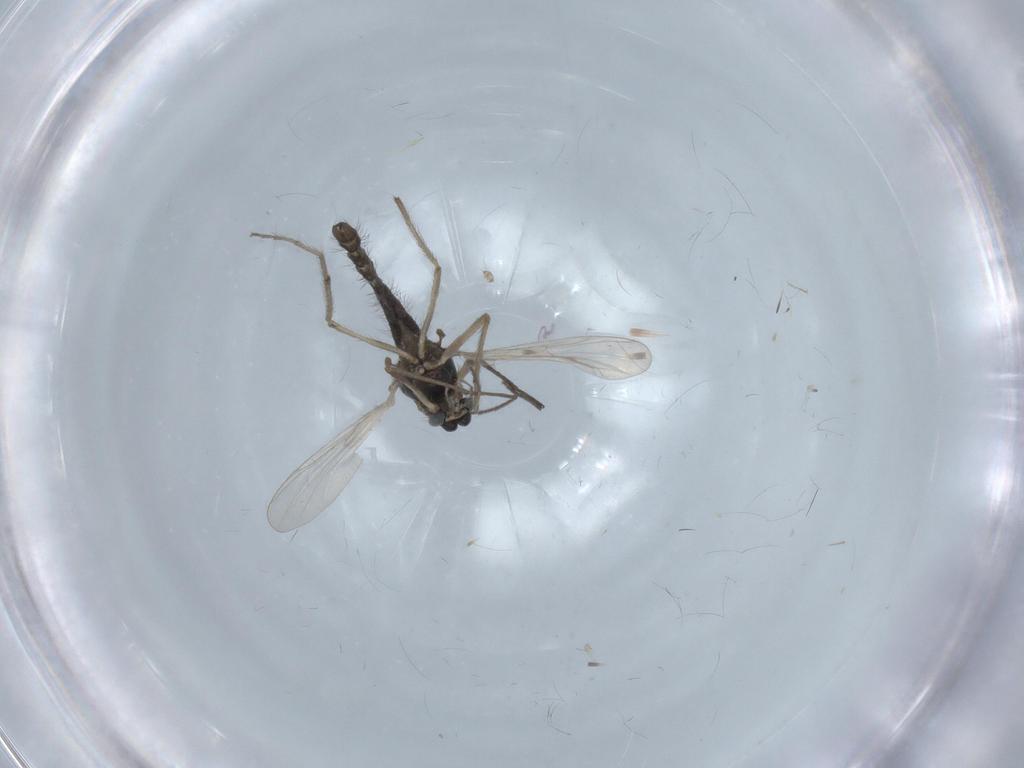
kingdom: Animalia
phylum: Arthropoda
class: Insecta
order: Diptera
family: Chironomidae
